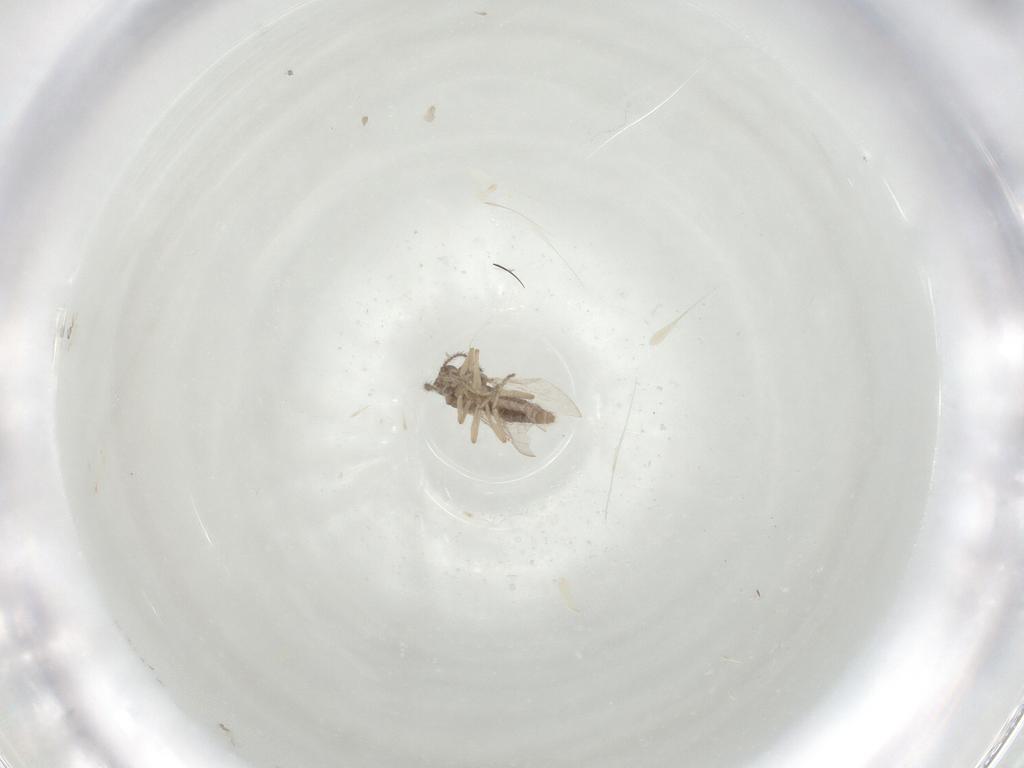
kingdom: Animalia
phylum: Arthropoda
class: Insecta
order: Diptera
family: Ceratopogonidae
